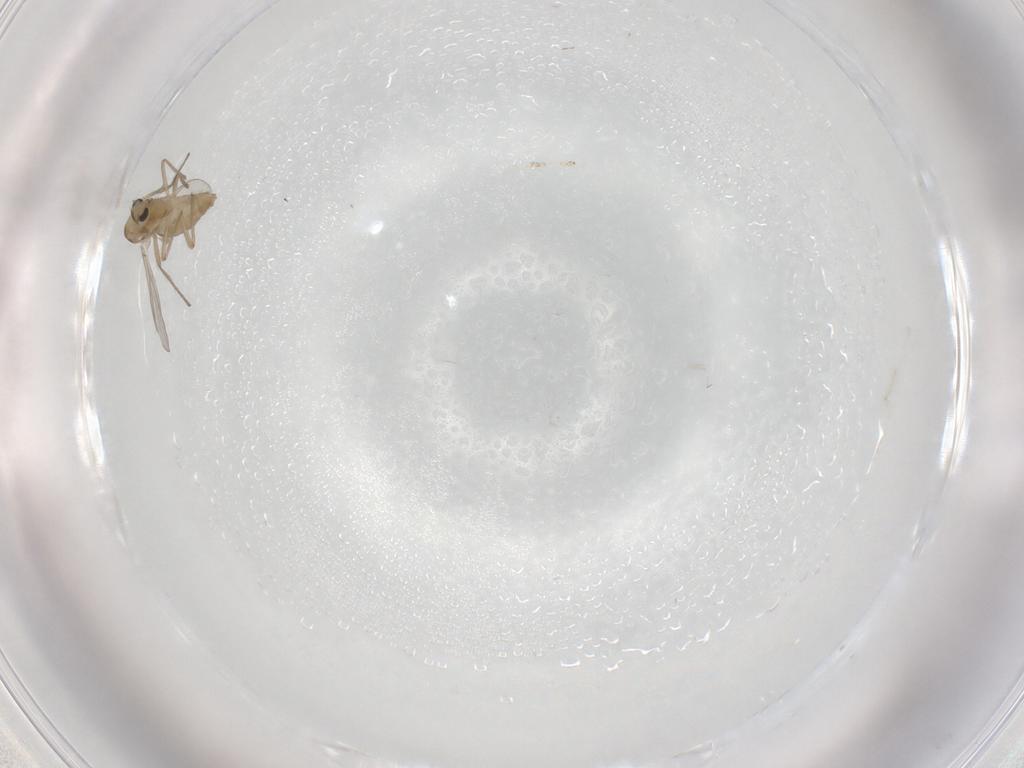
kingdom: Animalia
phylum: Arthropoda
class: Insecta
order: Diptera
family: Chironomidae
